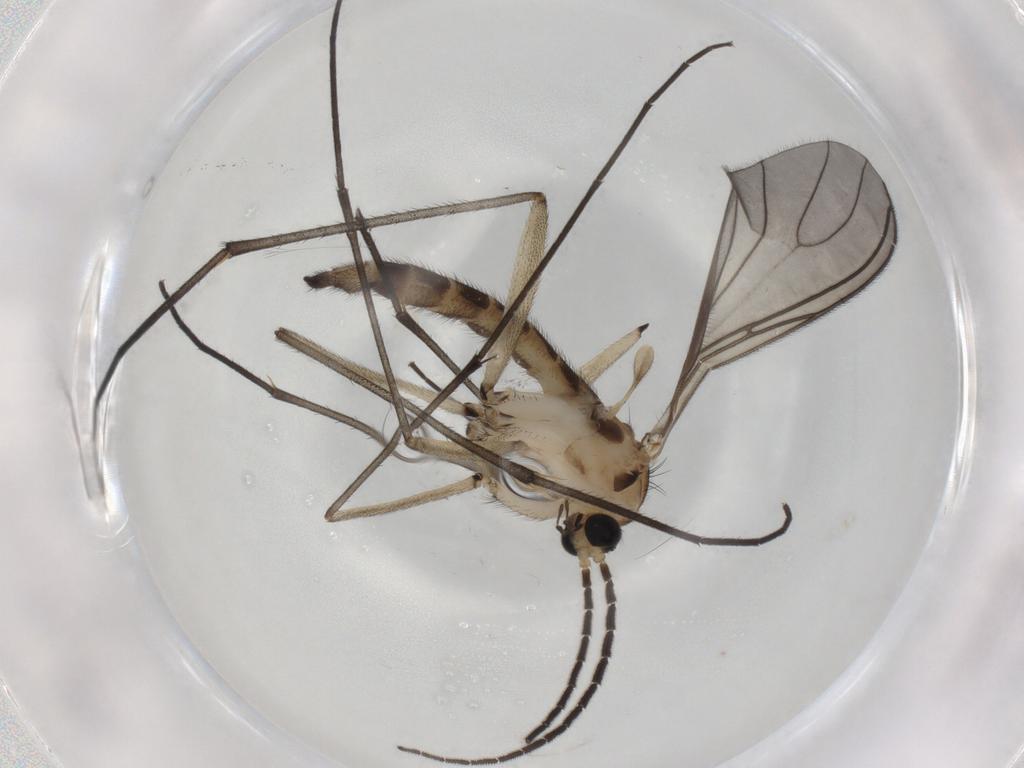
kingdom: Animalia
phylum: Arthropoda
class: Insecta
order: Diptera
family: Sciaridae
